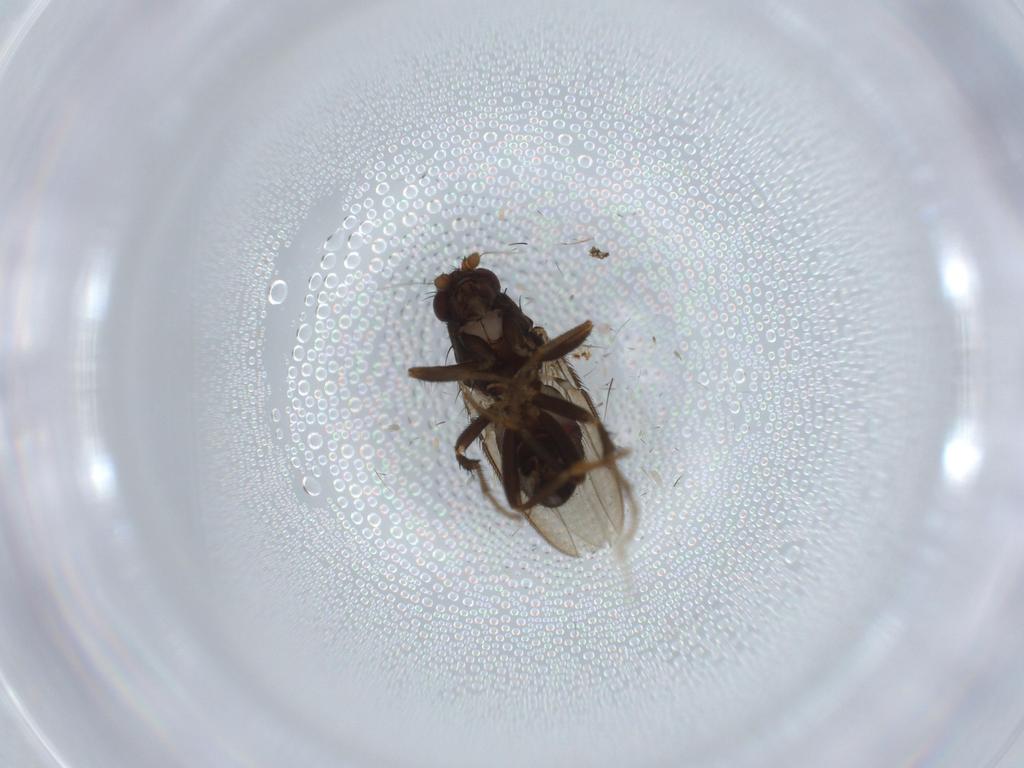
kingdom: Animalia
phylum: Arthropoda
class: Insecta
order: Diptera
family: Sphaeroceridae
